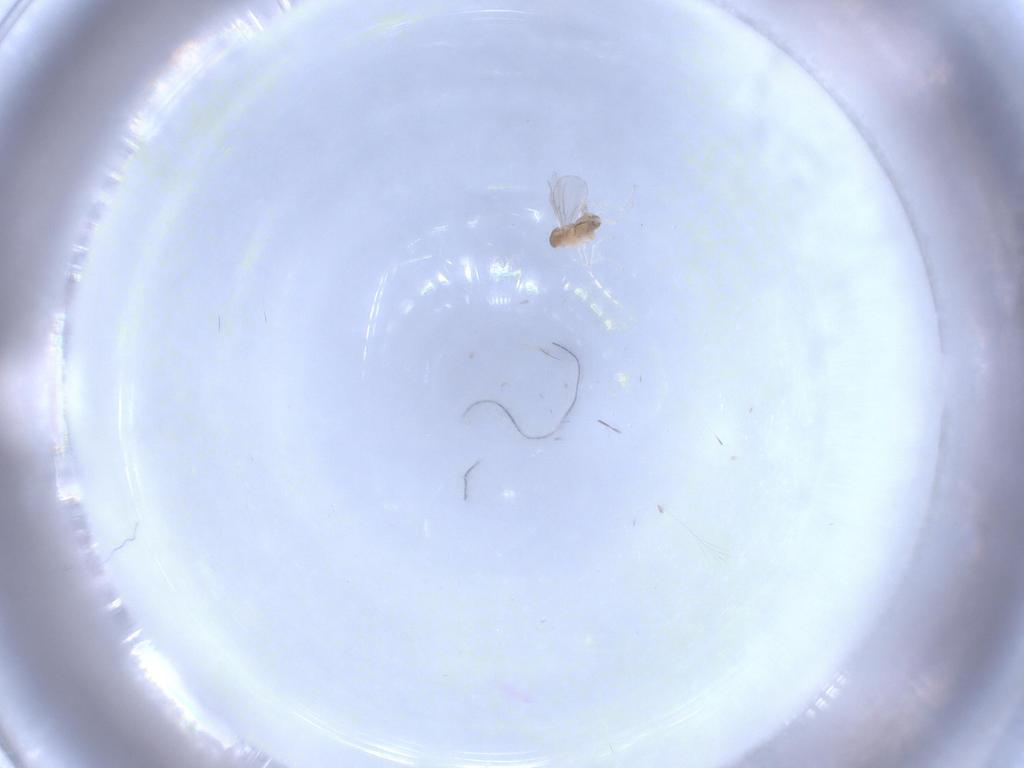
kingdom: Animalia
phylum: Arthropoda
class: Insecta
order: Diptera
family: Cecidomyiidae
